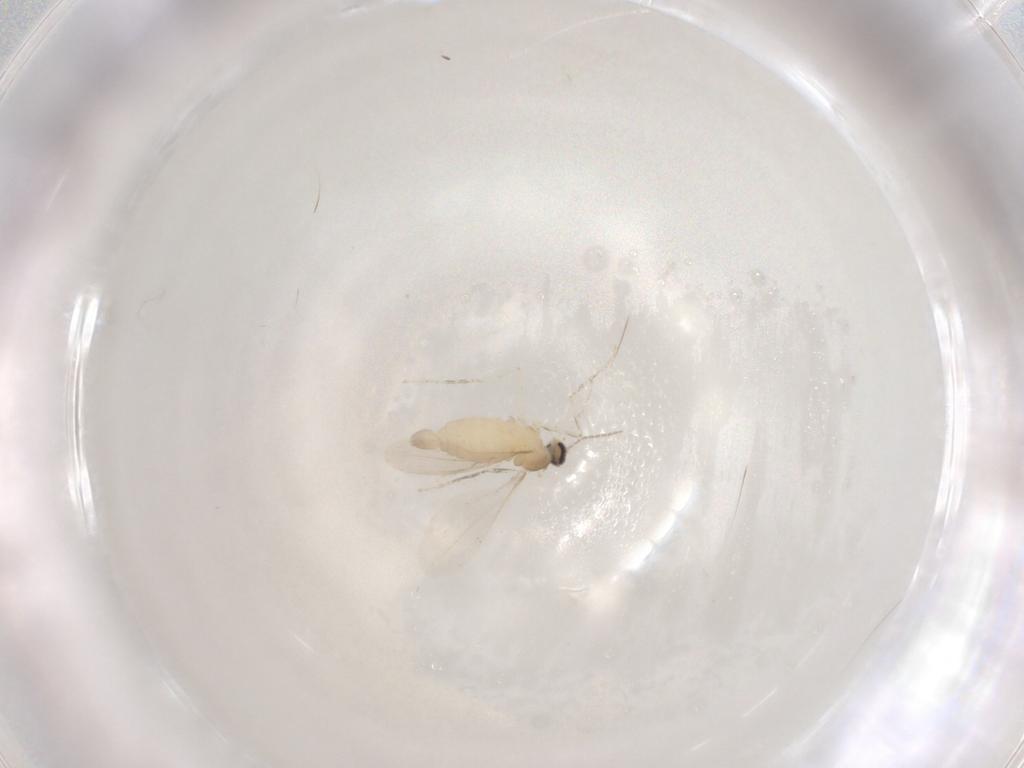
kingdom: Animalia
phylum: Arthropoda
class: Insecta
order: Diptera
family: Cecidomyiidae
